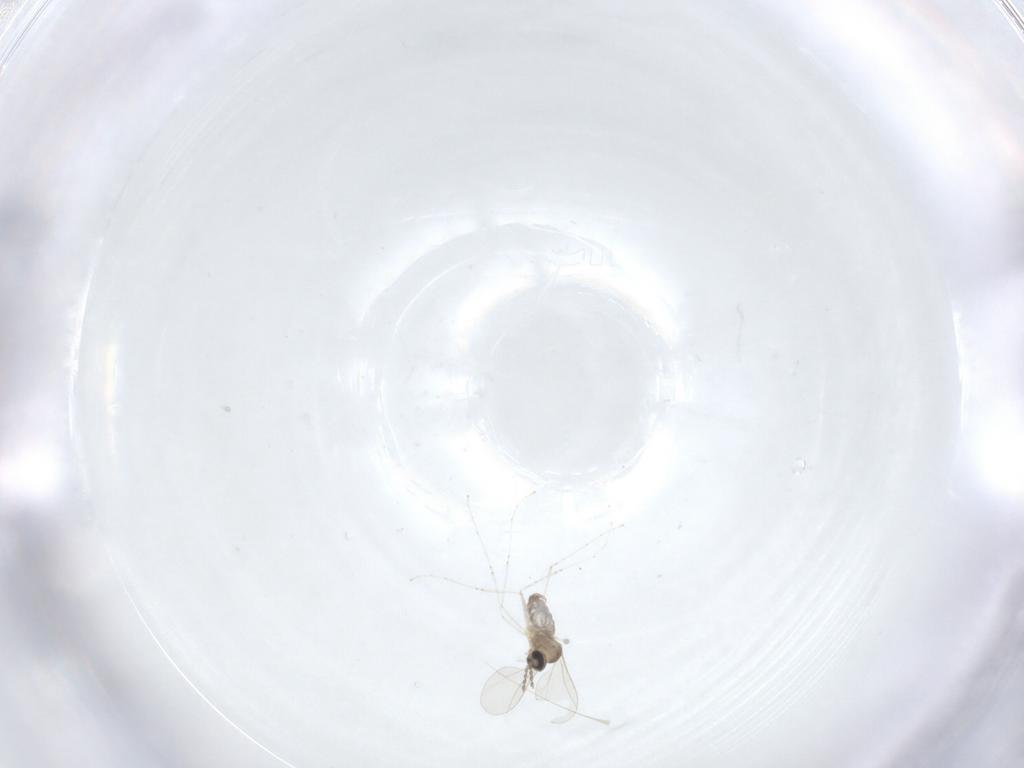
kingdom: Animalia
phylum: Arthropoda
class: Insecta
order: Diptera
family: Cecidomyiidae
